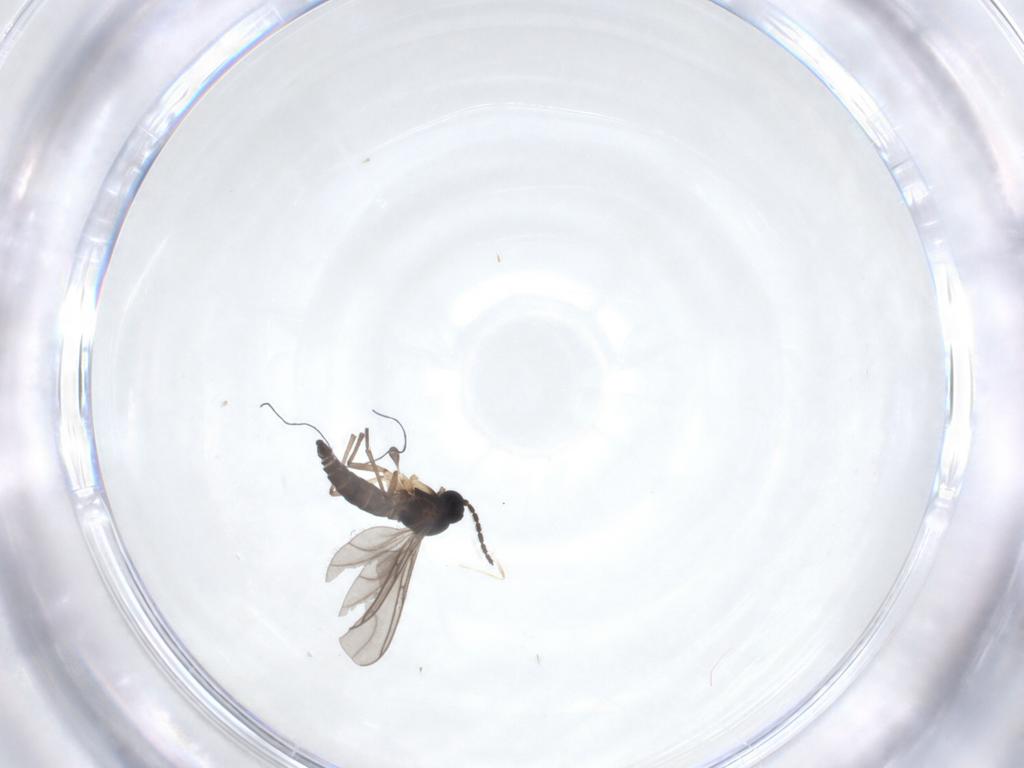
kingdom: Animalia
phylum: Arthropoda
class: Insecta
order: Diptera
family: Sciaridae
